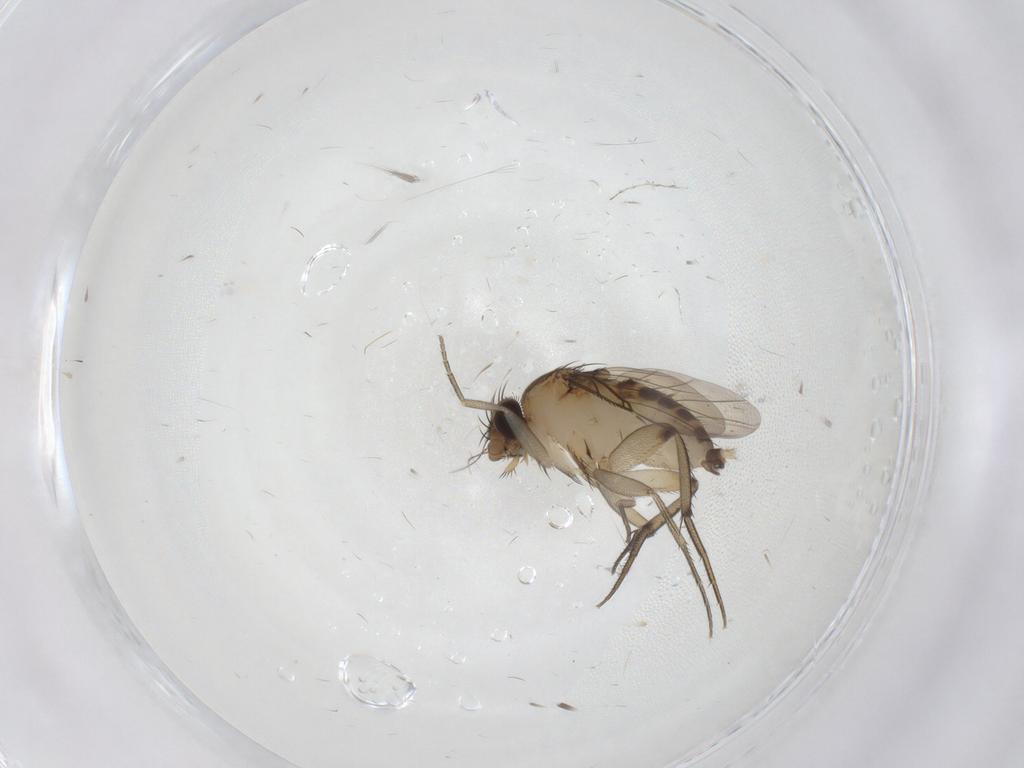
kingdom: Animalia
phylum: Arthropoda
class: Insecta
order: Diptera
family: Phoridae
